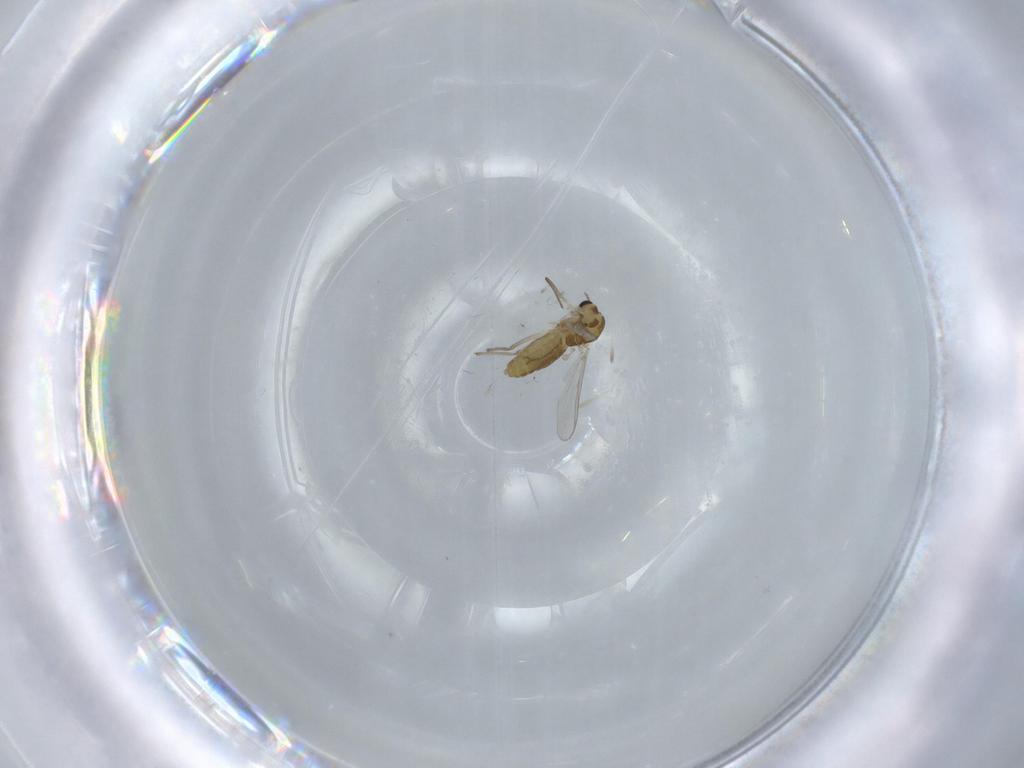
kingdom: Animalia
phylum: Arthropoda
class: Insecta
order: Diptera
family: Chironomidae
